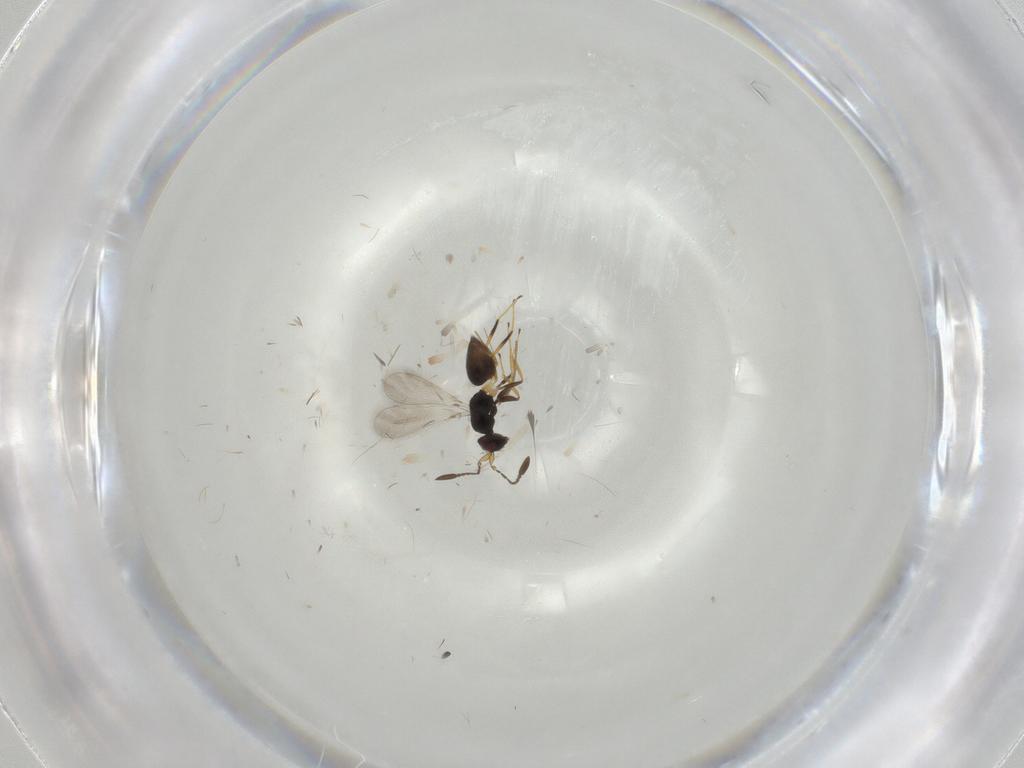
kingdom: Animalia
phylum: Arthropoda
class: Insecta
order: Hymenoptera
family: Mymaridae
